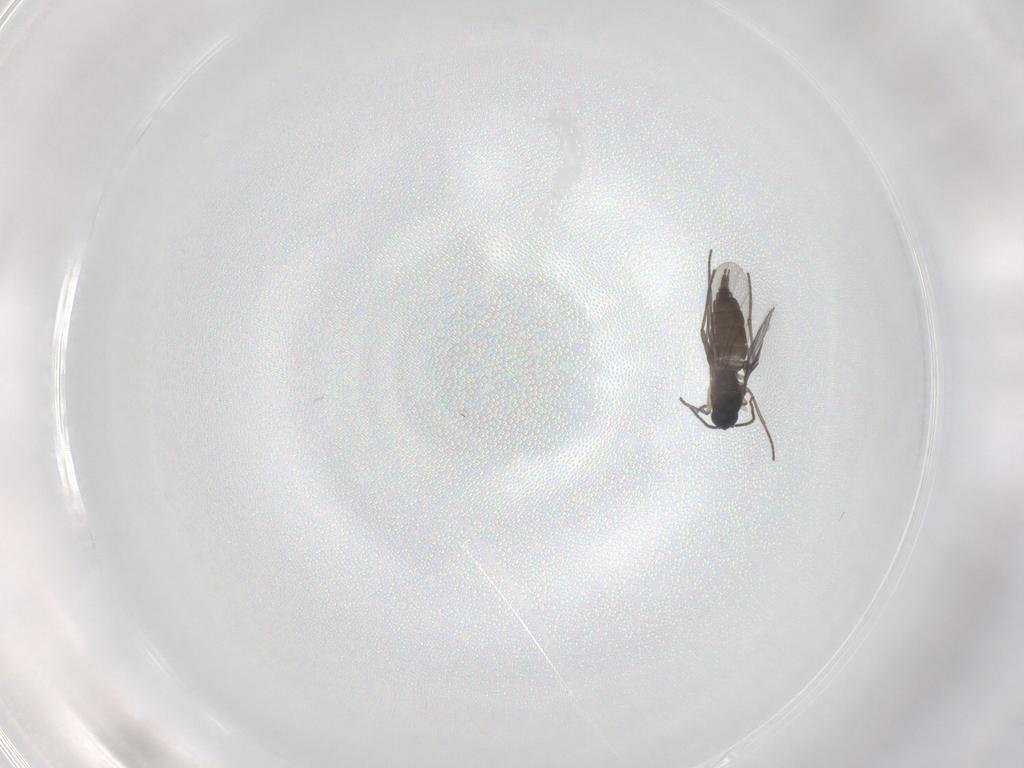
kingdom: Animalia
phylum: Arthropoda
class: Insecta
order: Diptera
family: Sciaridae
